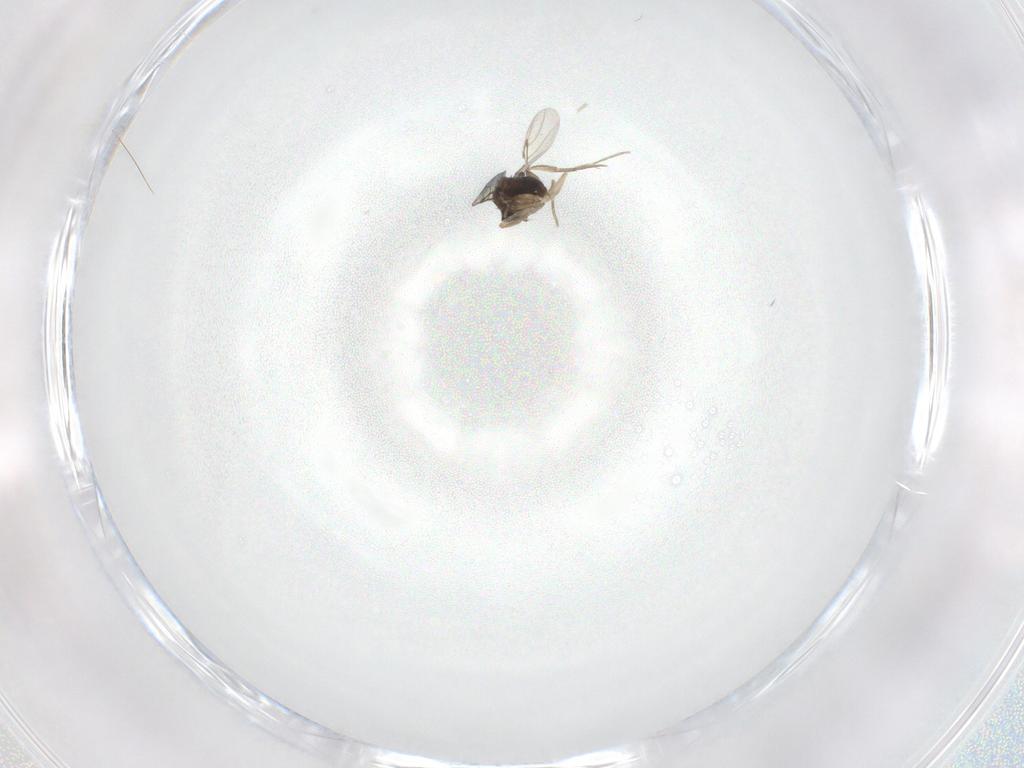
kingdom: Animalia
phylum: Arthropoda
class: Insecta
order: Diptera
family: Phoridae
